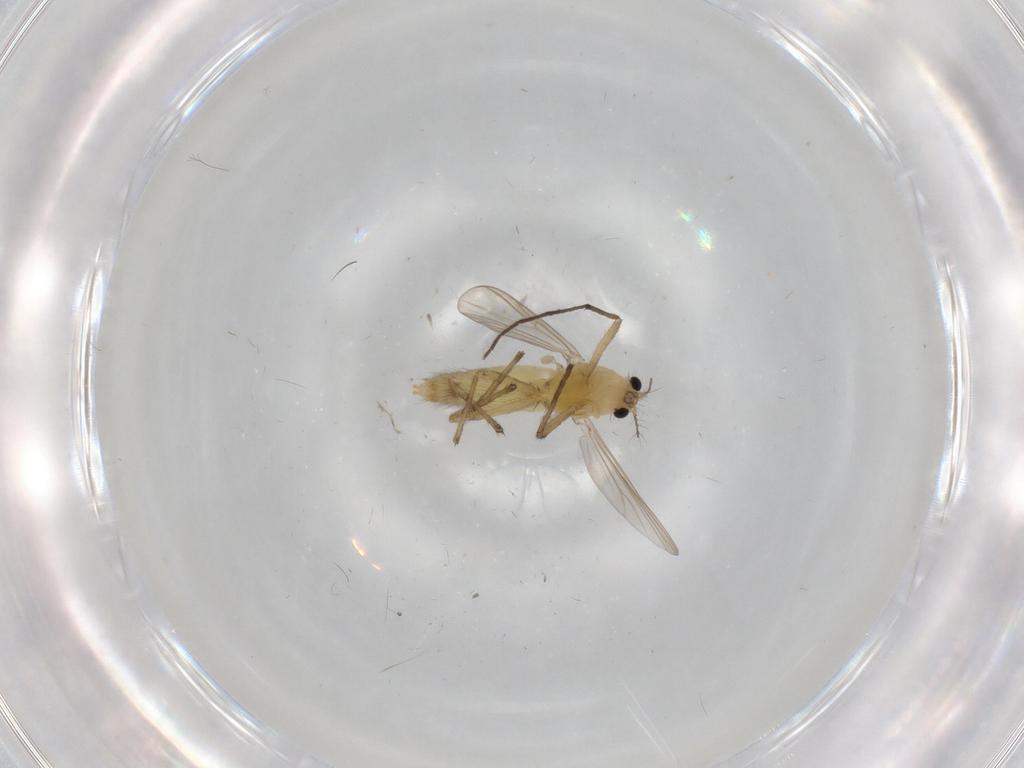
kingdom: Animalia
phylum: Arthropoda
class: Insecta
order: Diptera
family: Chironomidae
